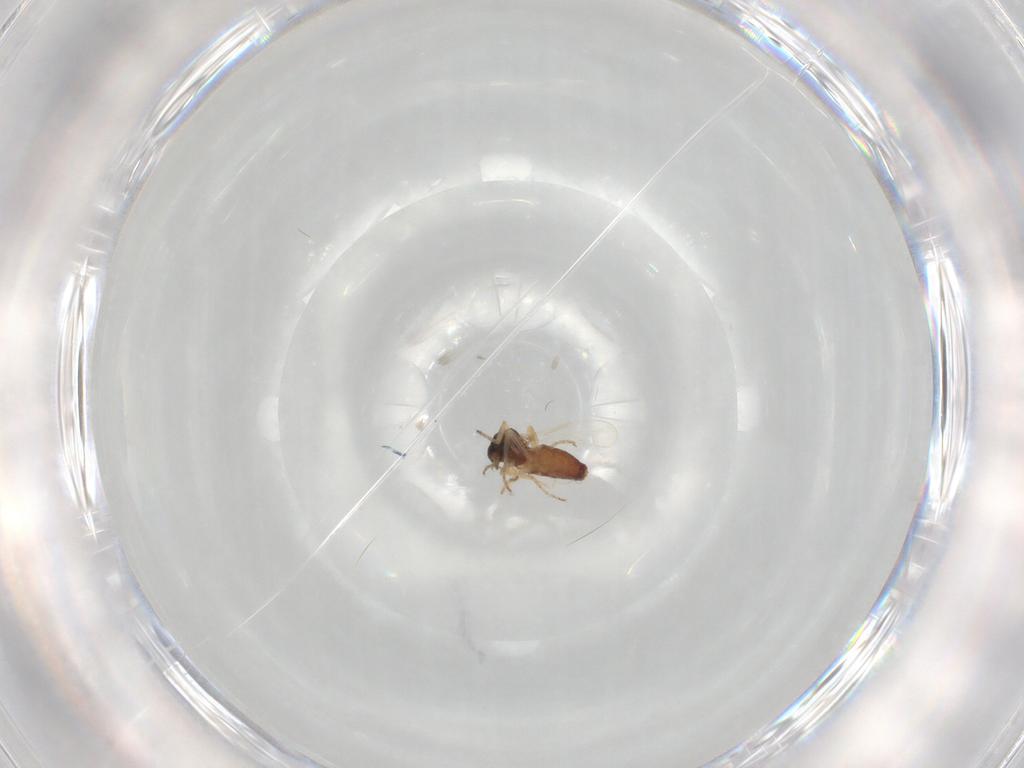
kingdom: Animalia
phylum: Arthropoda
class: Insecta
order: Diptera
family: Ceratopogonidae
